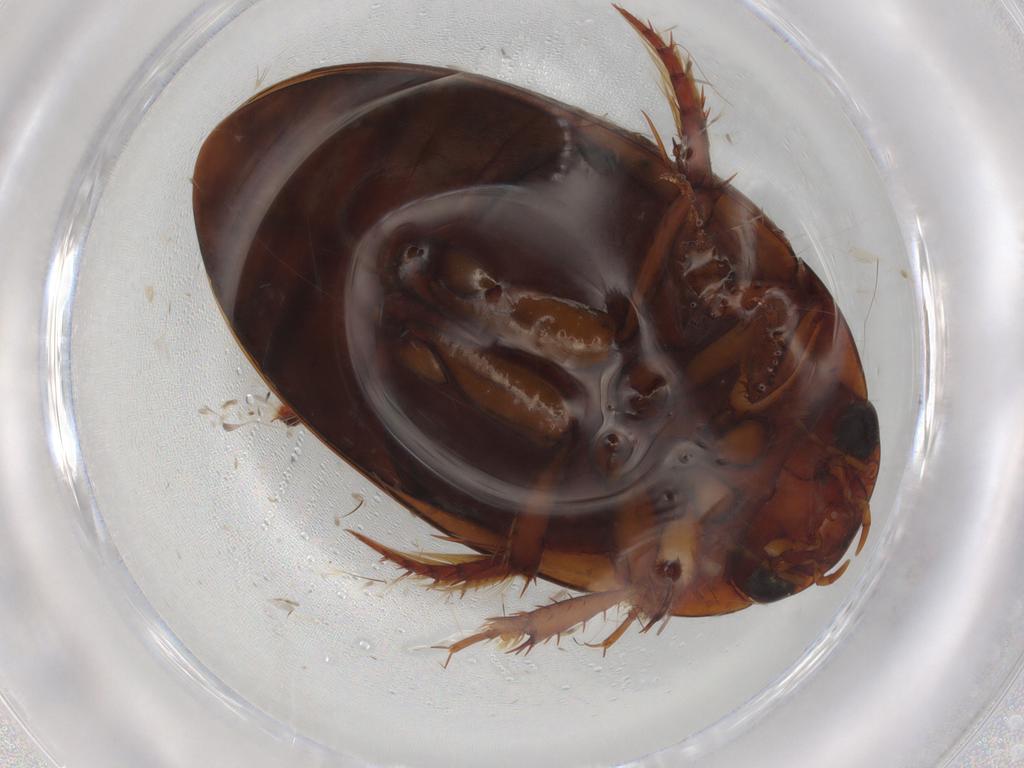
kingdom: Animalia
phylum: Arthropoda
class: Insecta
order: Coleoptera
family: Dytiscidae
